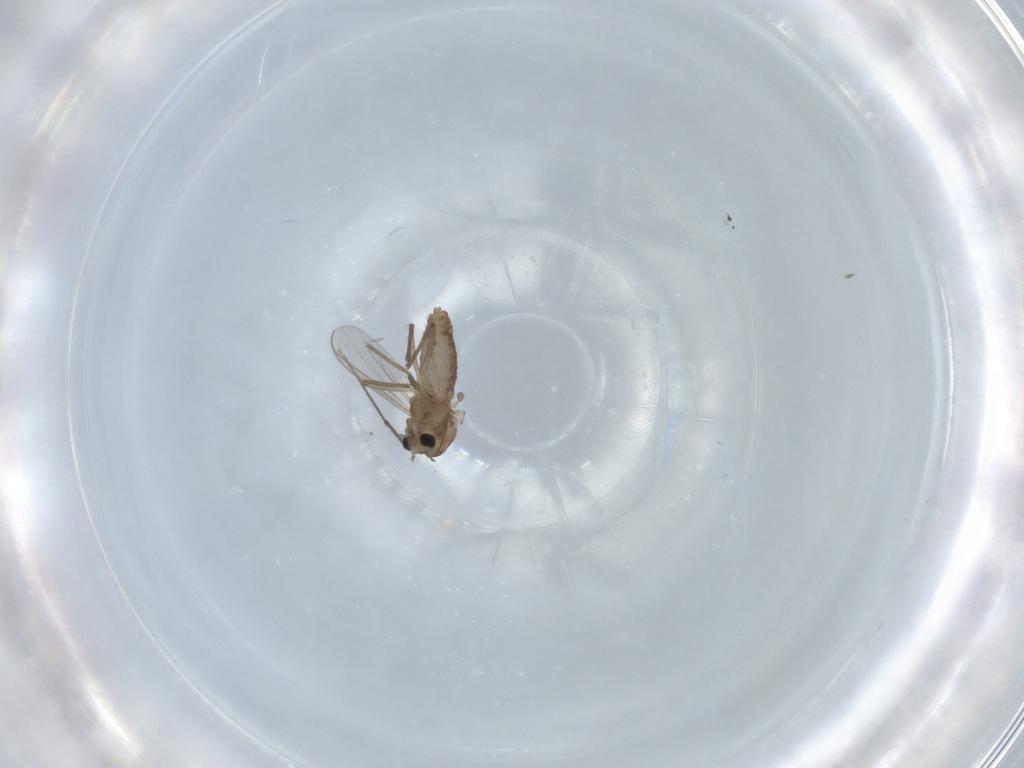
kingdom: Animalia
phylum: Arthropoda
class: Insecta
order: Diptera
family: Chironomidae
